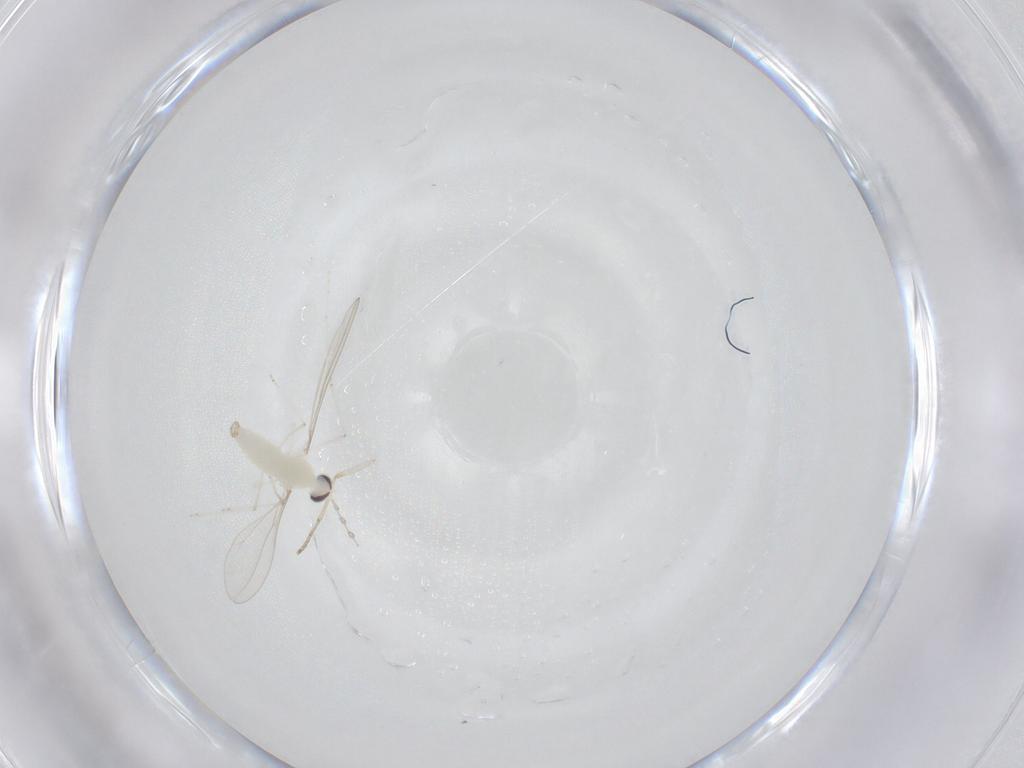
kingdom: Animalia
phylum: Arthropoda
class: Insecta
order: Diptera
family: Cecidomyiidae
